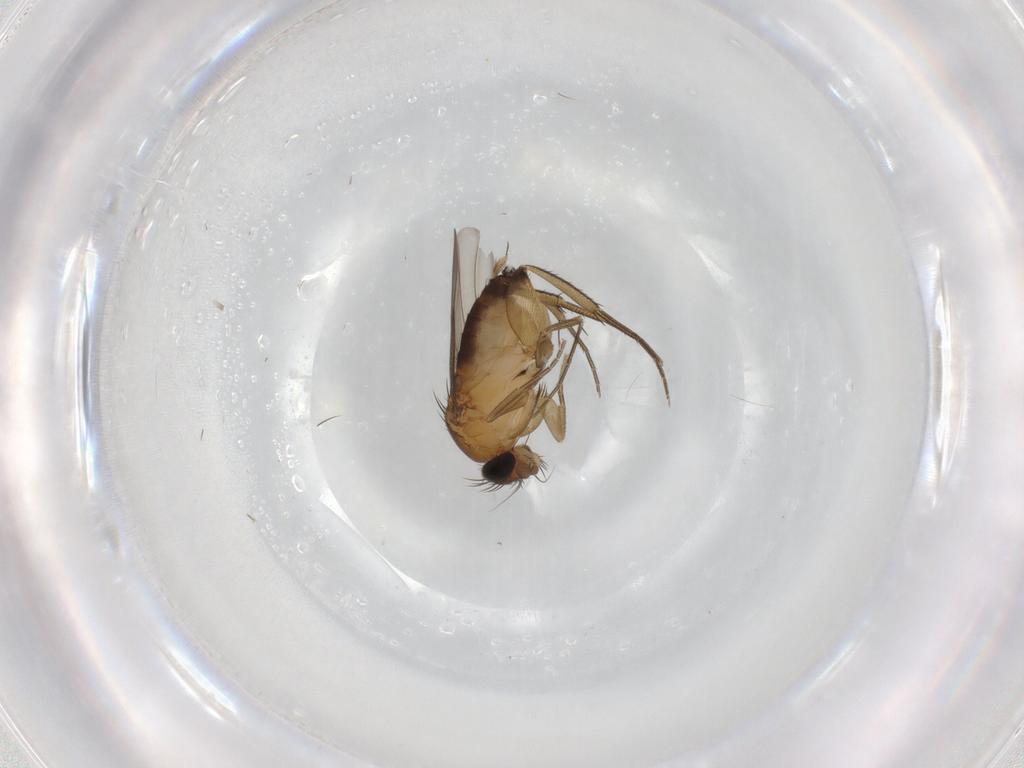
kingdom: Animalia
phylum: Arthropoda
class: Insecta
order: Diptera
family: Phoridae
